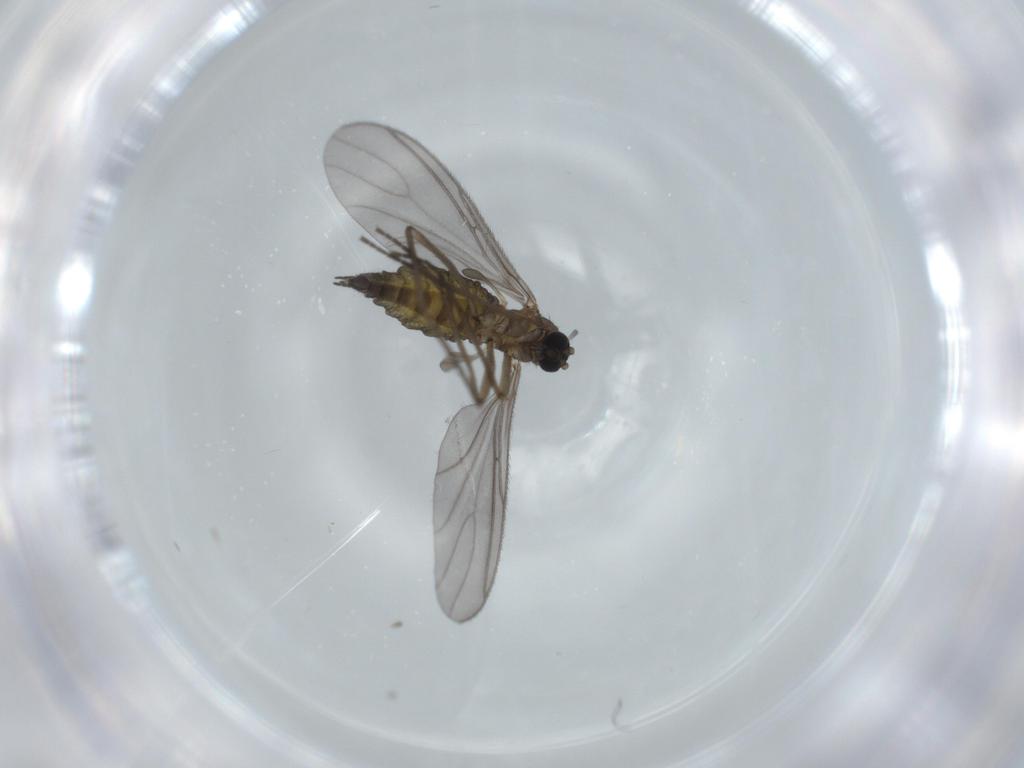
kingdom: Animalia
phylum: Arthropoda
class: Insecta
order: Diptera
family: Sciaridae
